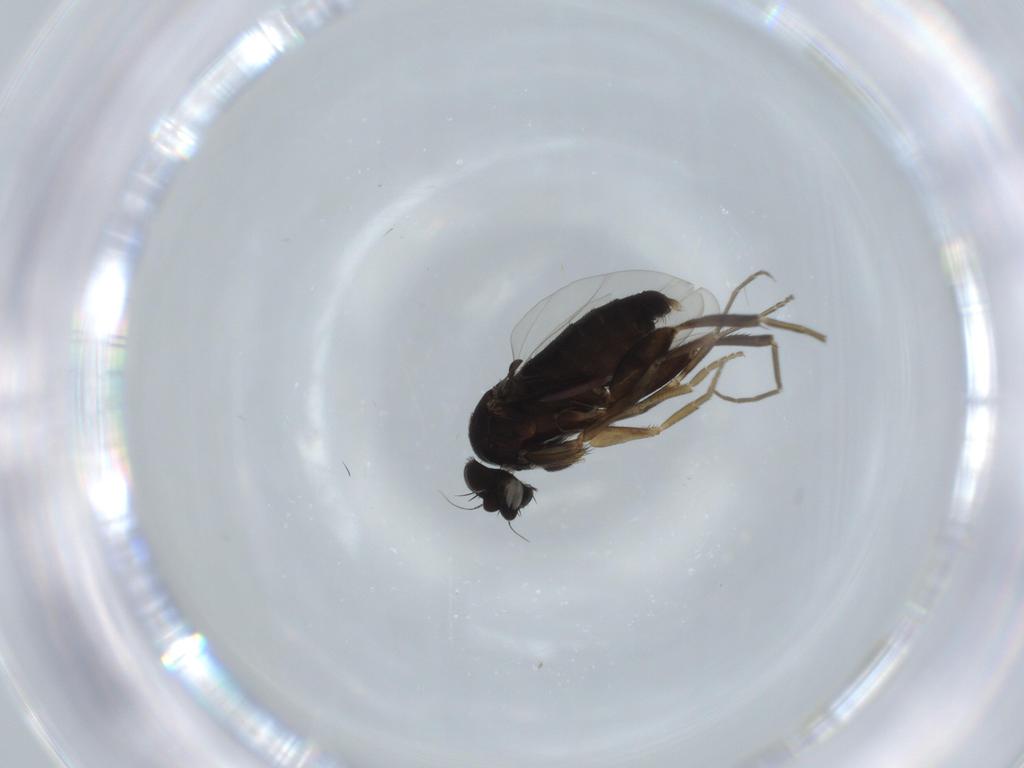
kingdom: Animalia
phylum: Arthropoda
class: Insecta
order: Diptera
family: Phoridae
